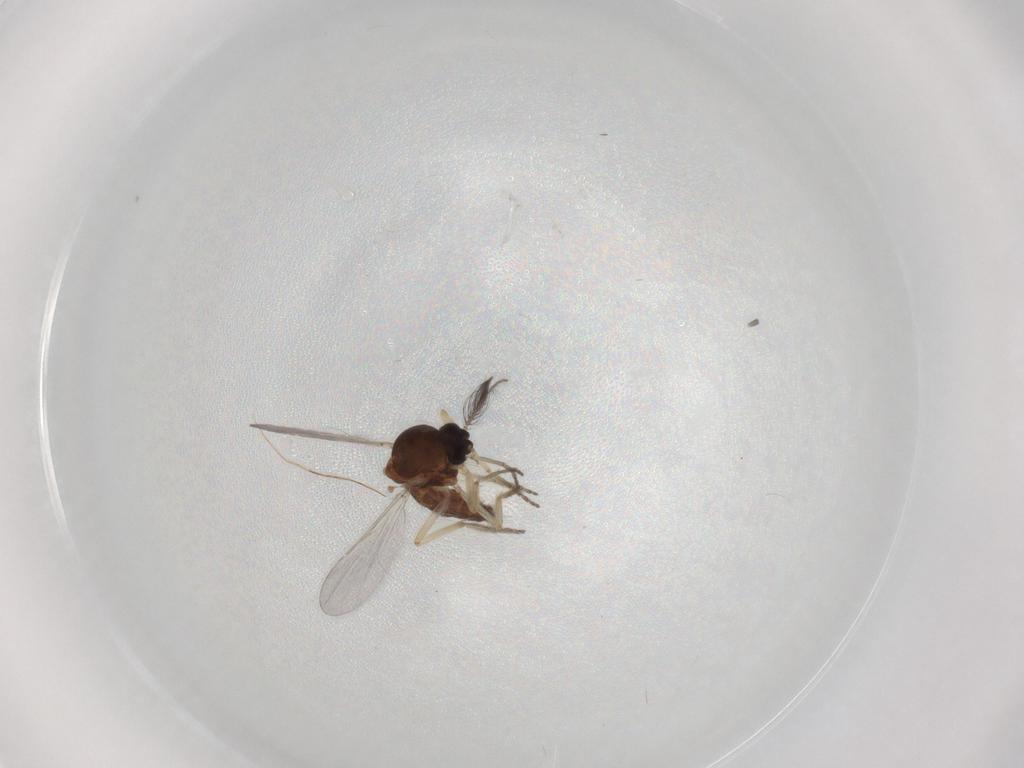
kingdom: Animalia
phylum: Arthropoda
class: Insecta
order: Diptera
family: Ceratopogonidae
